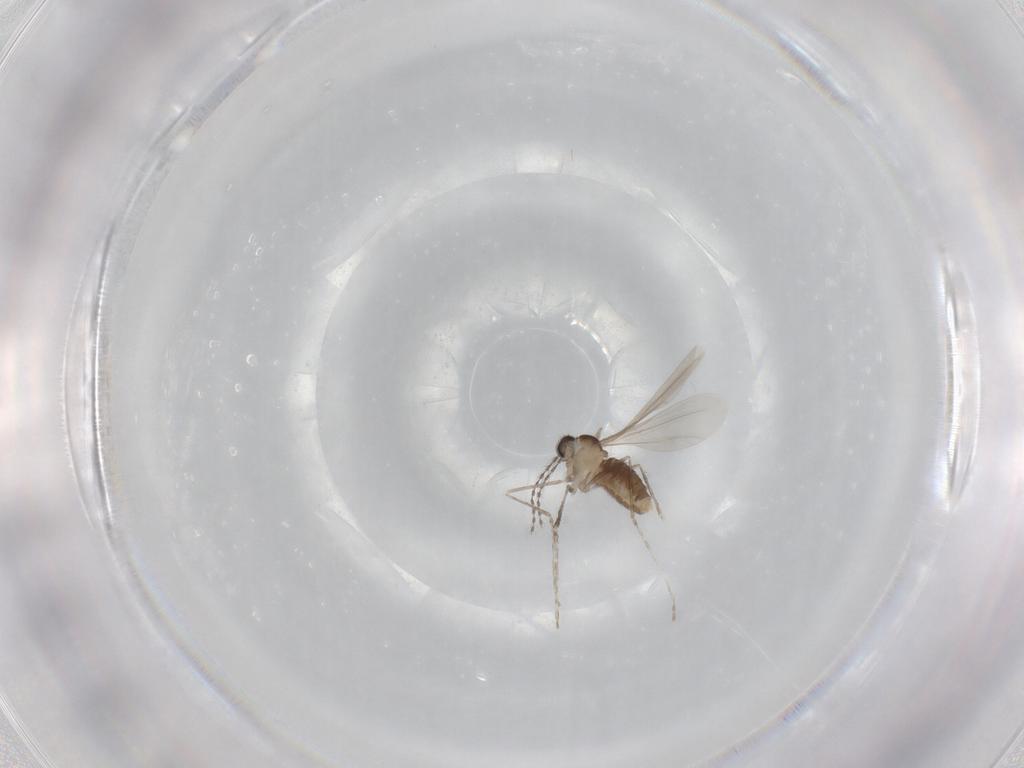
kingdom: Animalia
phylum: Arthropoda
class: Insecta
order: Diptera
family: Cecidomyiidae
